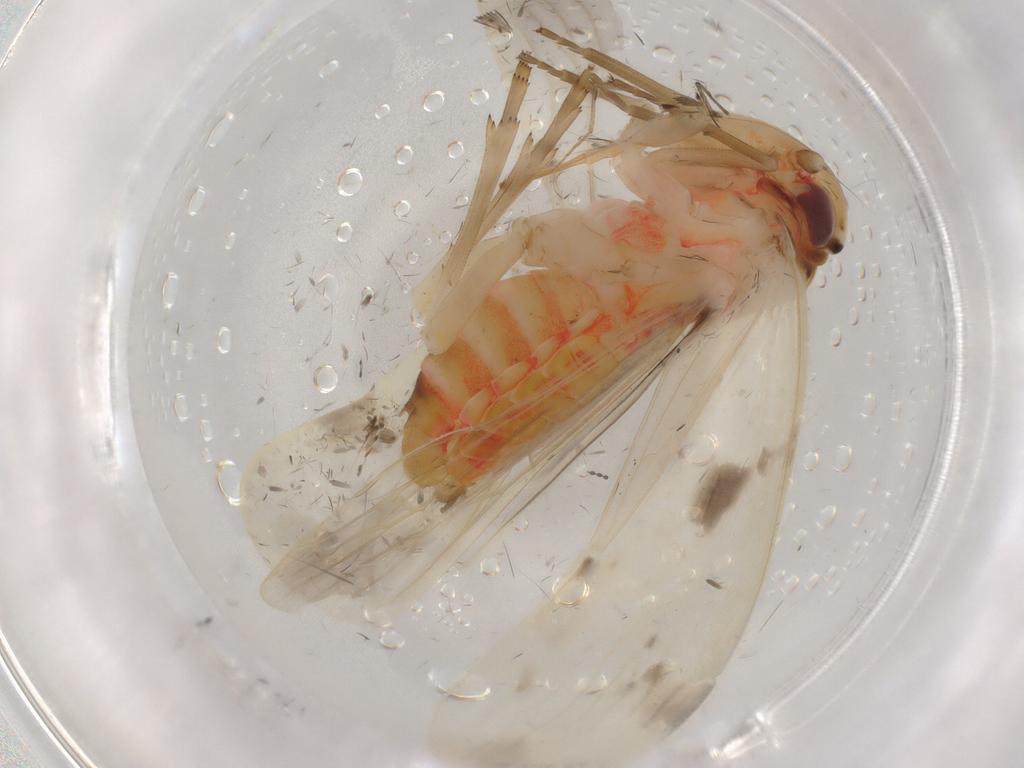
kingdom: Animalia
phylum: Arthropoda
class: Insecta
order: Hemiptera
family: Achilidae
